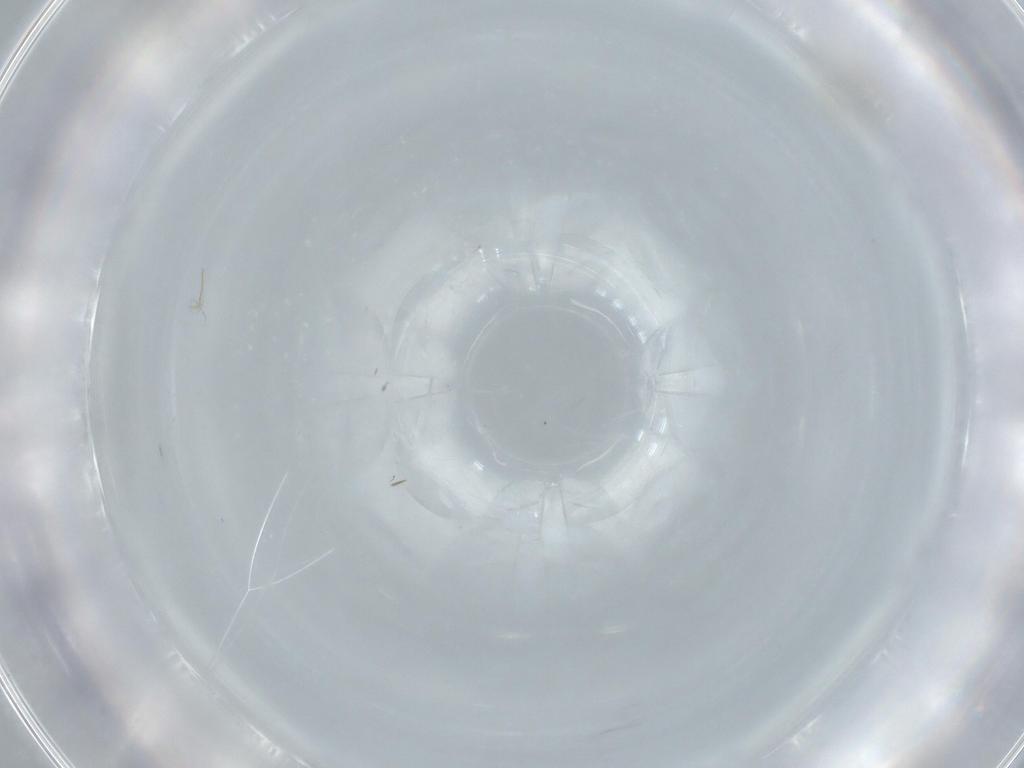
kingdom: Animalia
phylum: Arthropoda
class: Insecta
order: Diptera
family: Cecidomyiidae
